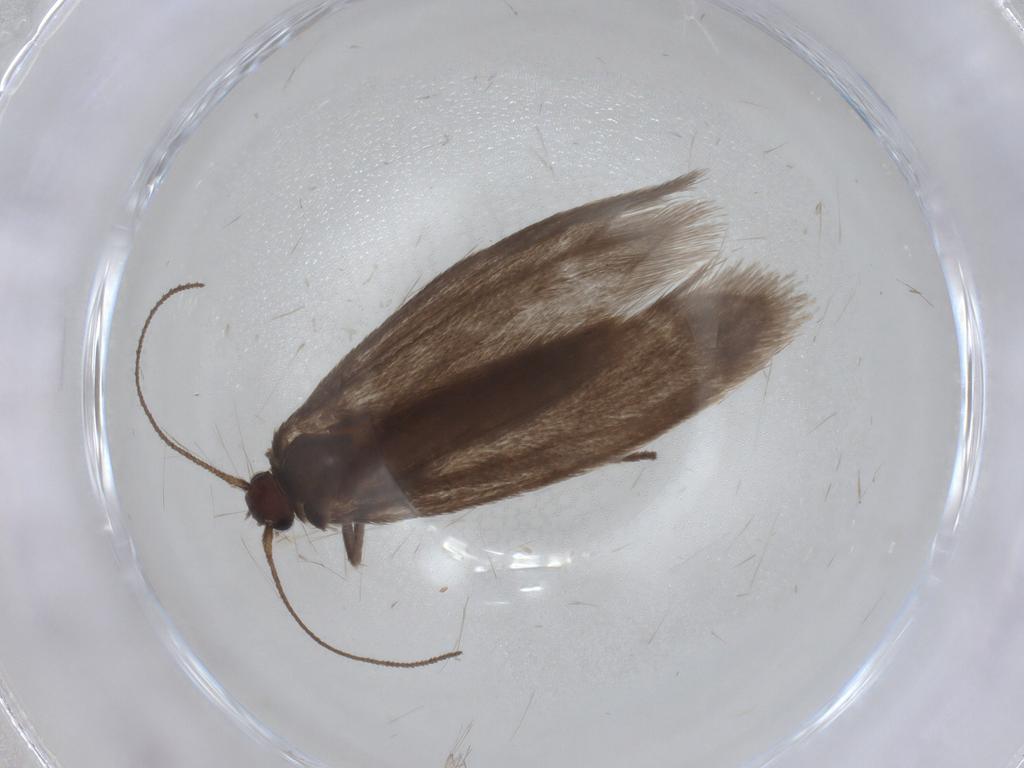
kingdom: Animalia
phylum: Arthropoda
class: Insecta
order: Lepidoptera
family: Limacodidae
